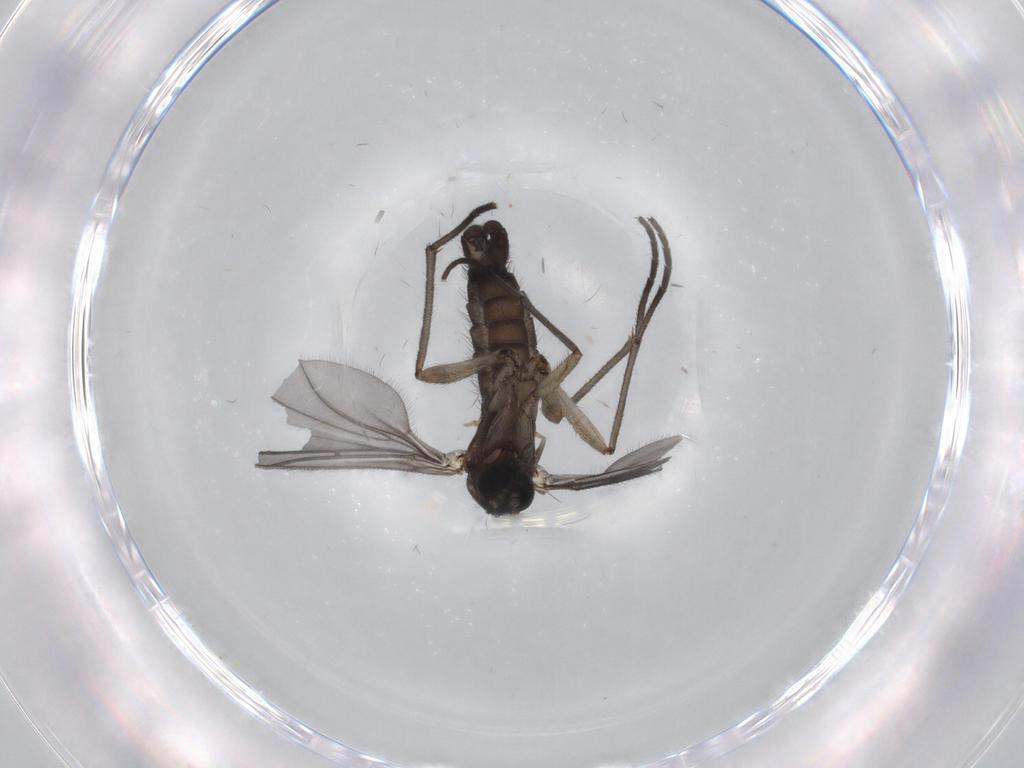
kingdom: Animalia
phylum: Arthropoda
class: Insecta
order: Diptera
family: Sciaridae
